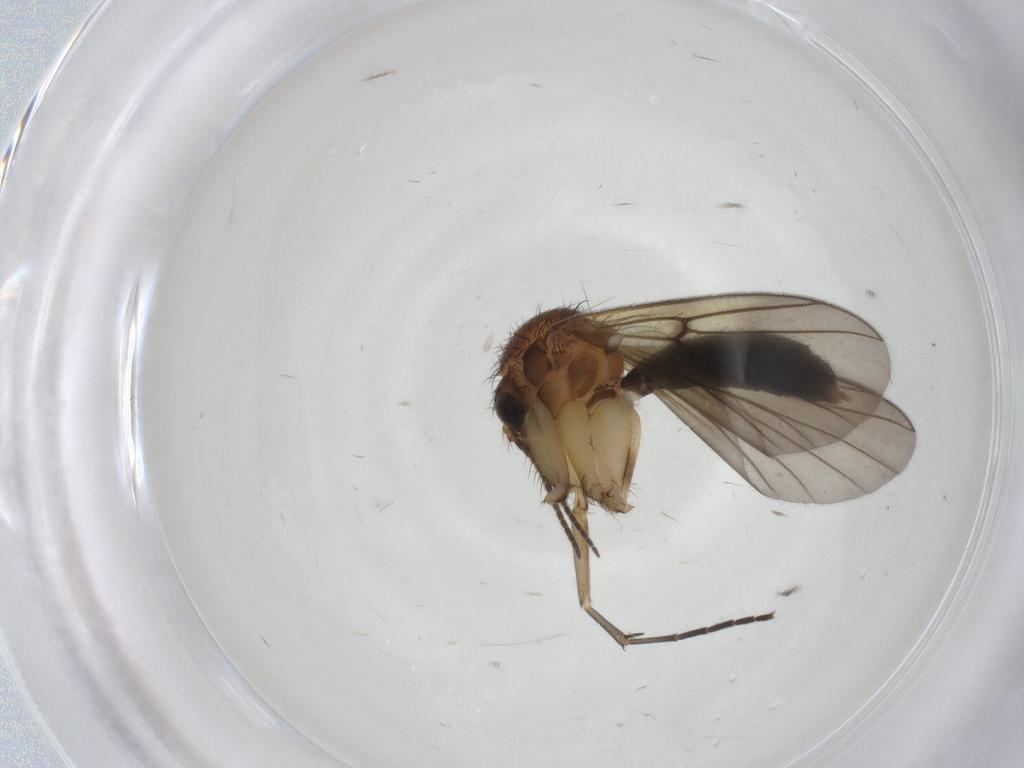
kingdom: Animalia
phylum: Arthropoda
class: Insecta
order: Diptera
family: Mycetophilidae
